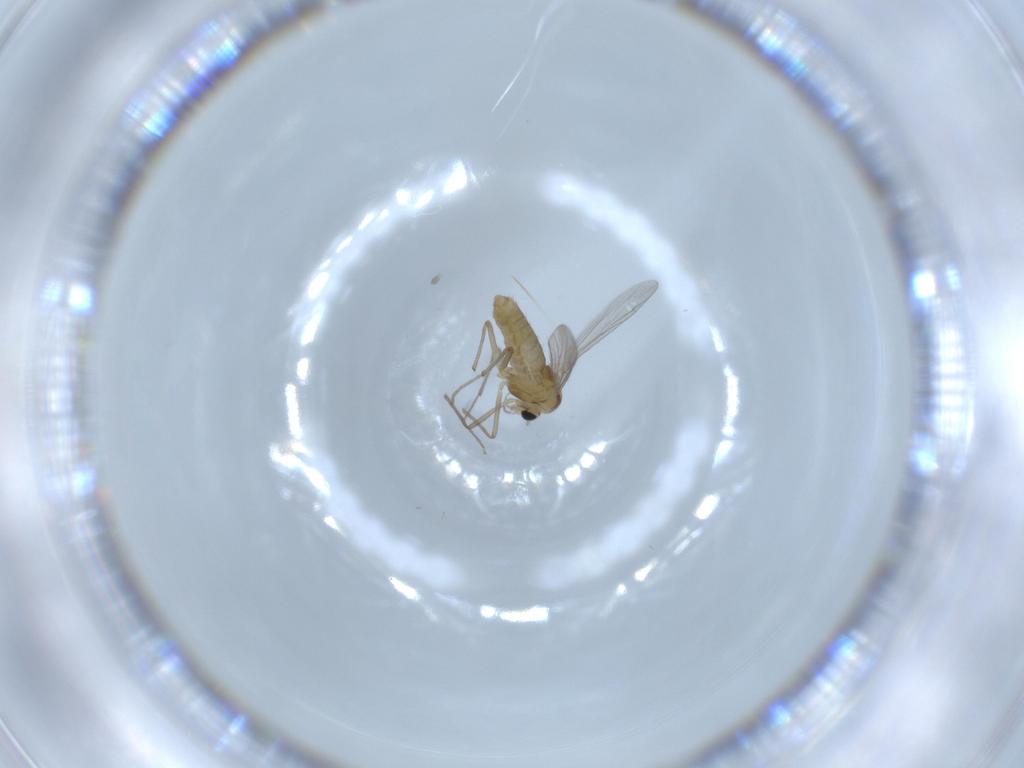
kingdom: Animalia
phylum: Arthropoda
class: Insecta
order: Diptera
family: Chironomidae
